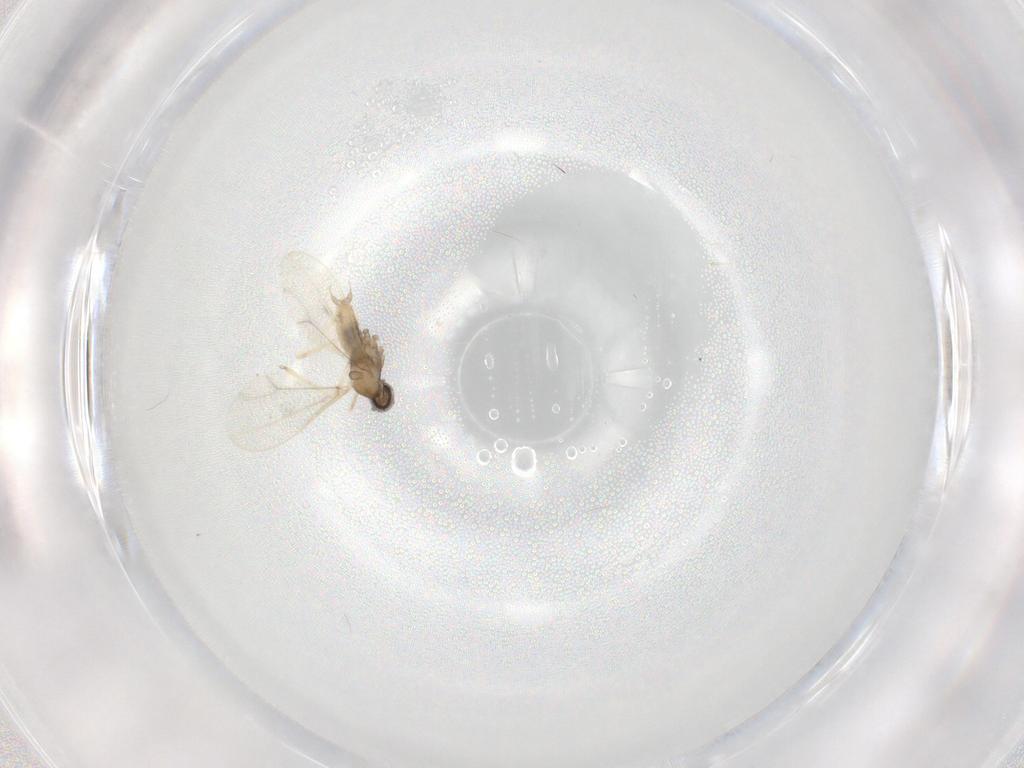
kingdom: Animalia
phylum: Arthropoda
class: Insecta
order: Diptera
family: Cecidomyiidae
